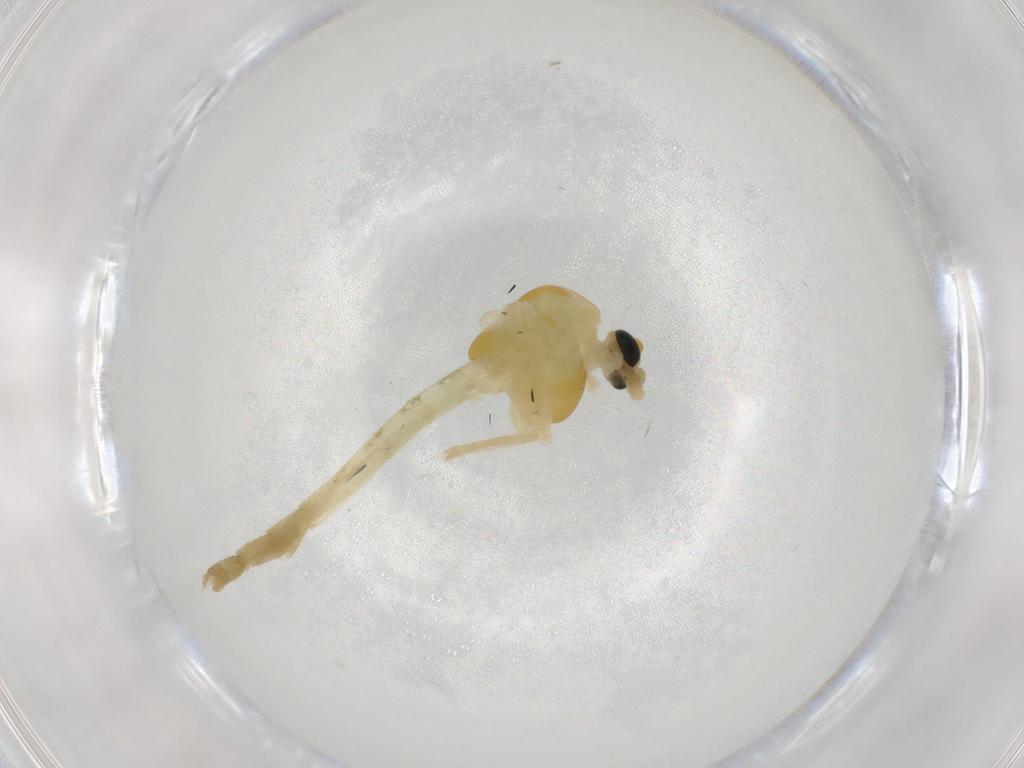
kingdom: Animalia
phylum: Arthropoda
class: Insecta
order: Diptera
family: Chironomidae
